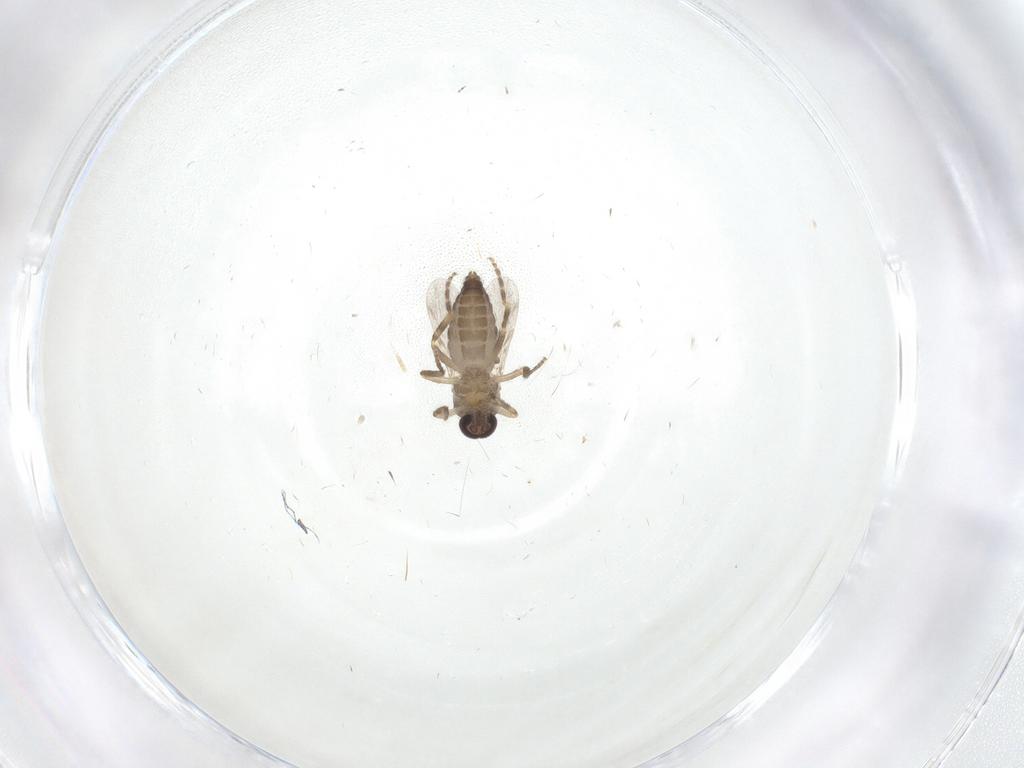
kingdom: Animalia
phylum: Arthropoda
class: Insecta
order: Diptera
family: Ceratopogonidae
